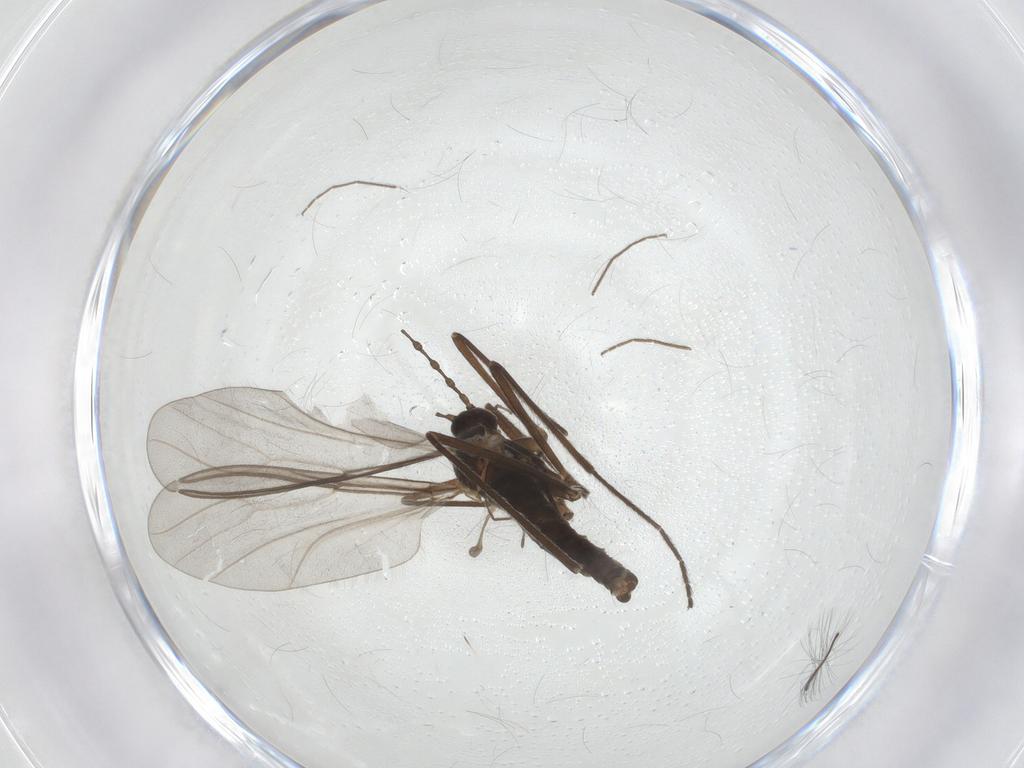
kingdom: Animalia
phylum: Arthropoda
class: Insecta
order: Diptera
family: Cecidomyiidae
